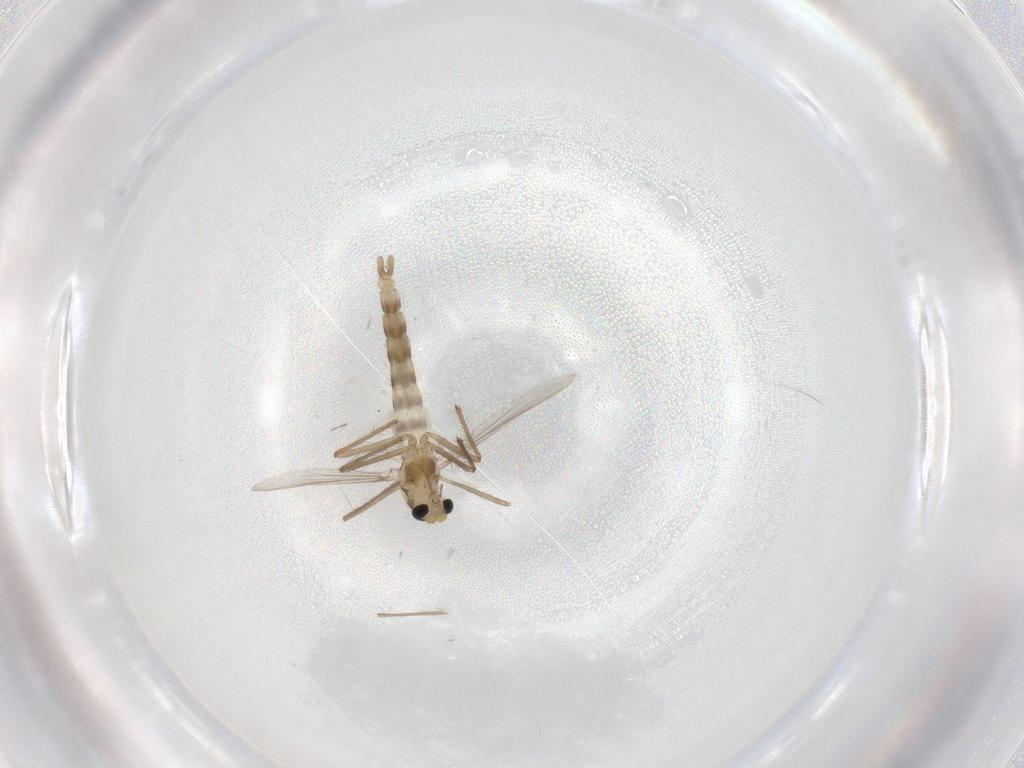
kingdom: Animalia
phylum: Arthropoda
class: Insecta
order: Diptera
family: Chironomidae
